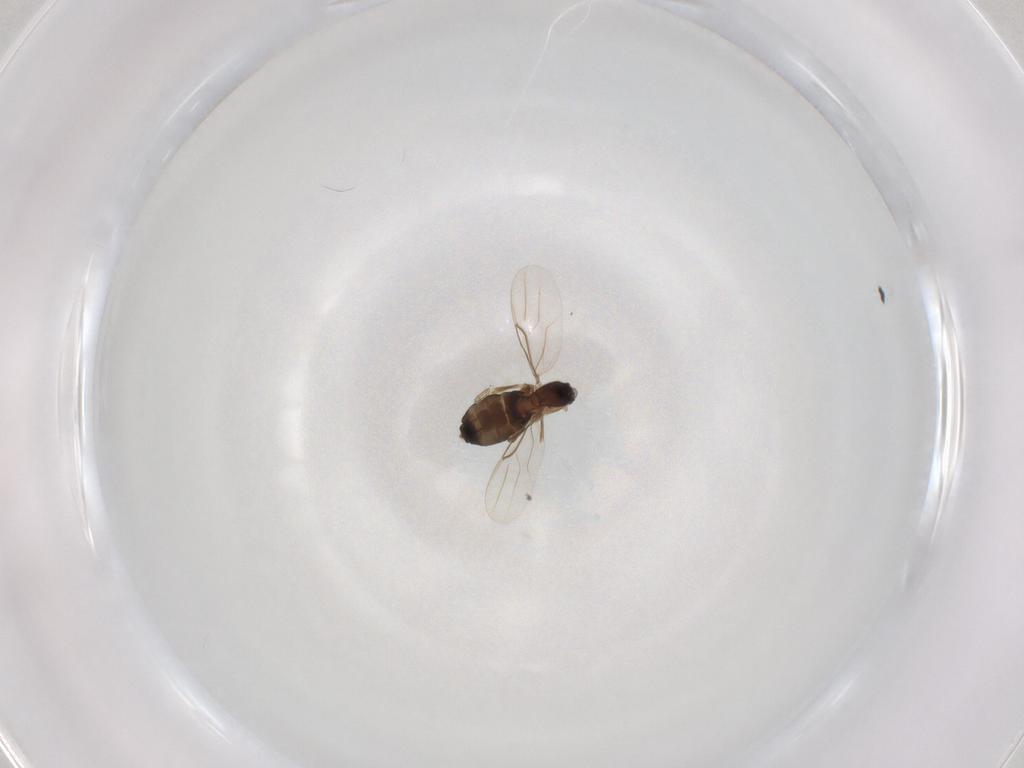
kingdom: Animalia
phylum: Arthropoda
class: Insecta
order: Diptera
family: Phoridae
